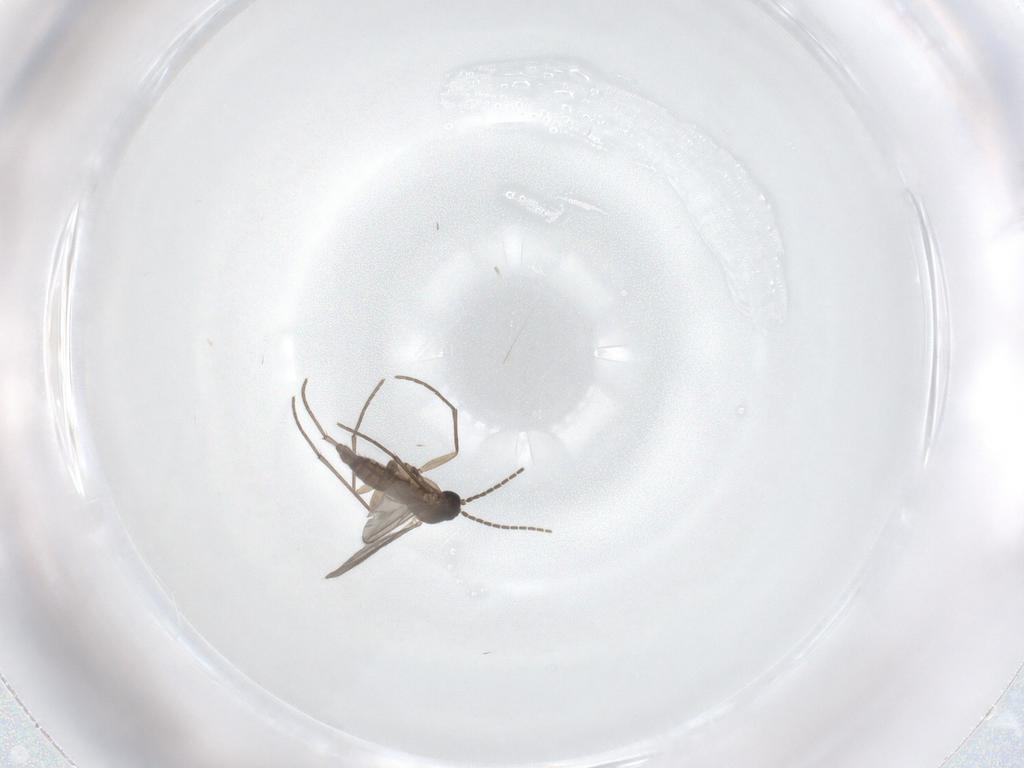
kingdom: Animalia
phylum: Arthropoda
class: Insecta
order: Diptera
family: Sciaridae
